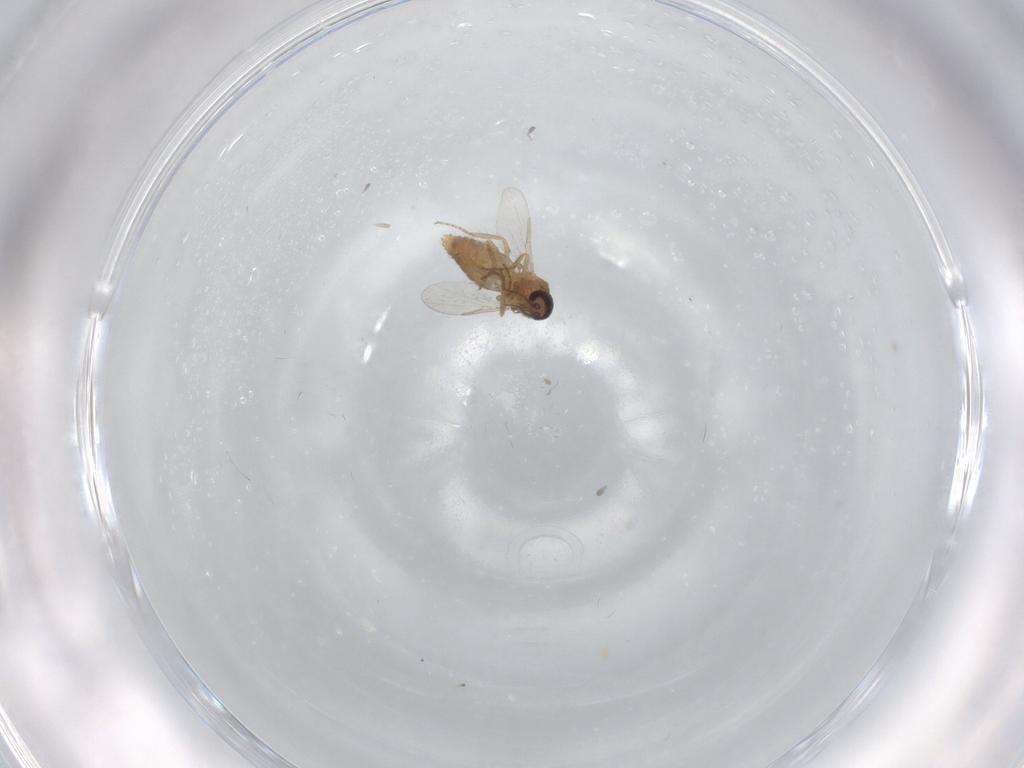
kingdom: Animalia
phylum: Arthropoda
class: Insecta
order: Diptera
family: Ceratopogonidae
